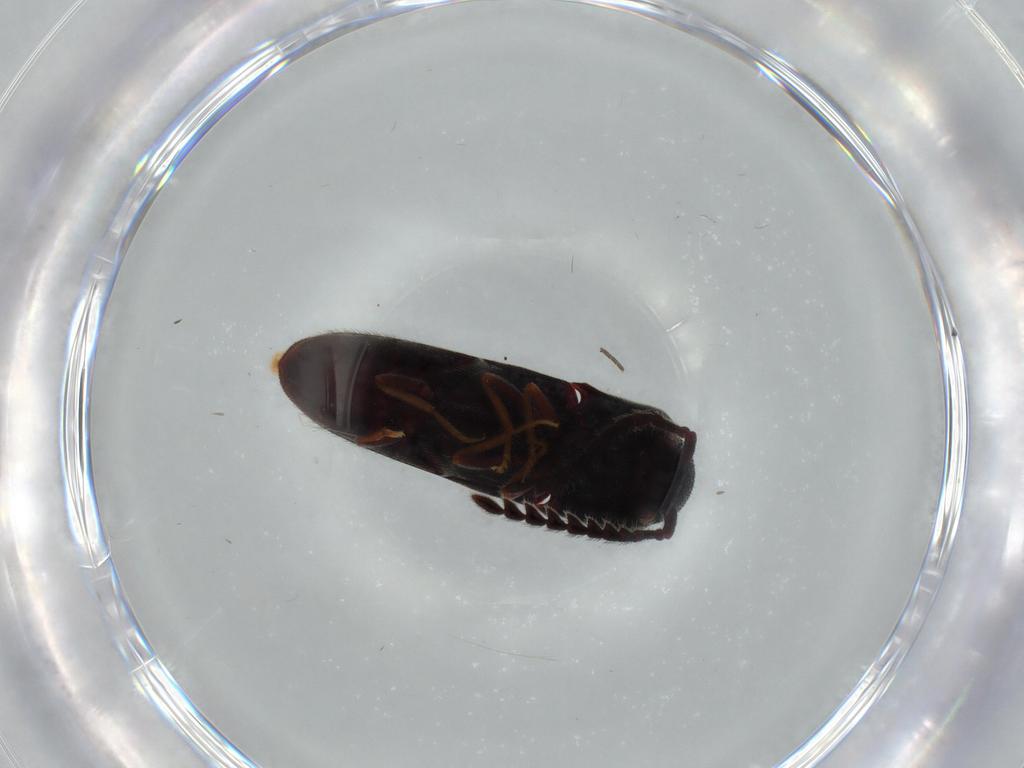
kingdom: Animalia
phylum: Arthropoda
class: Insecta
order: Coleoptera
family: Eucnemidae
